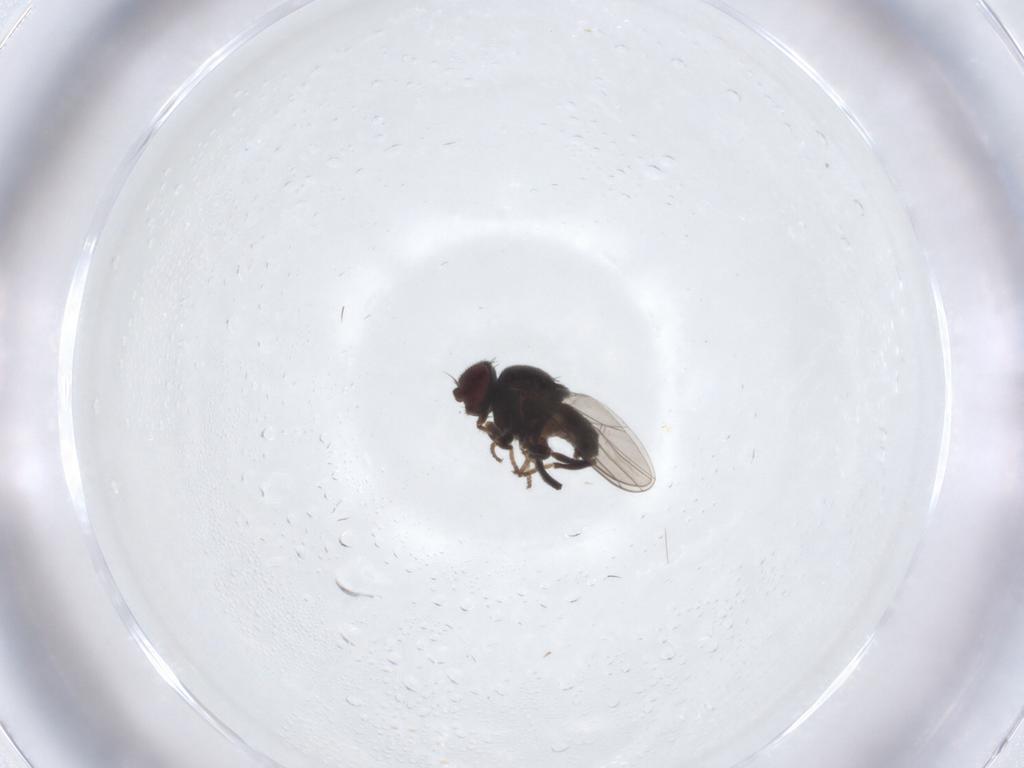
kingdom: Animalia
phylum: Arthropoda
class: Insecta
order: Diptera
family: Chloropidae
